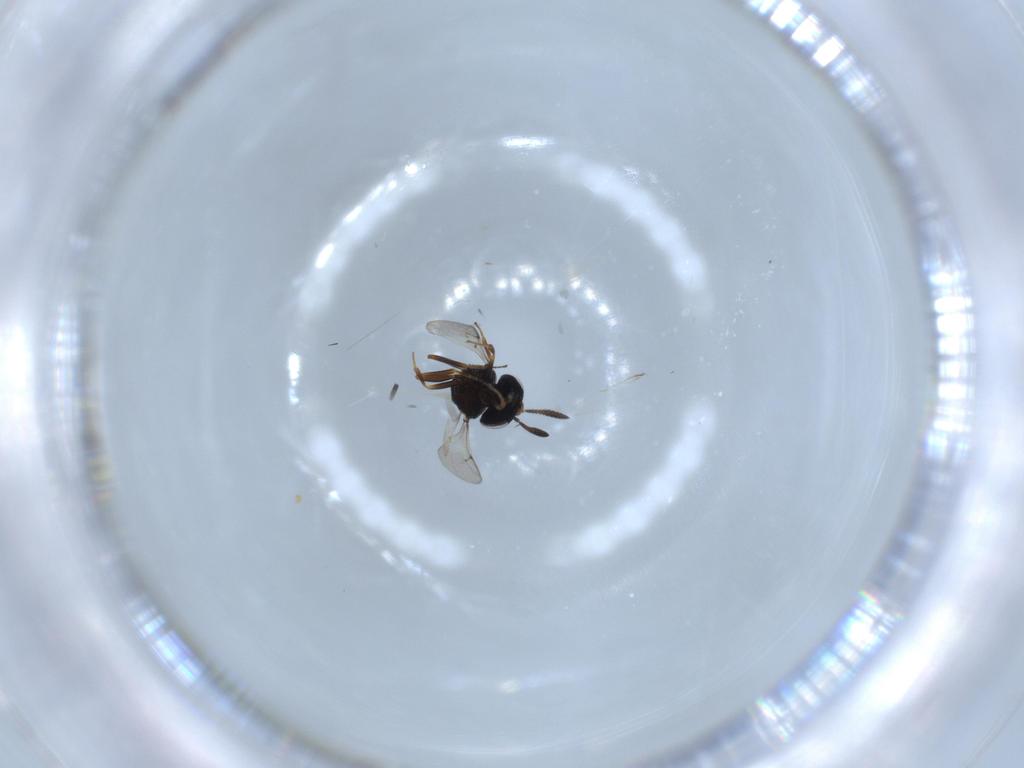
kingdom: Animalia
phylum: Arthropoda
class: Insecta
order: Hymenoptera
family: Scelionidae
